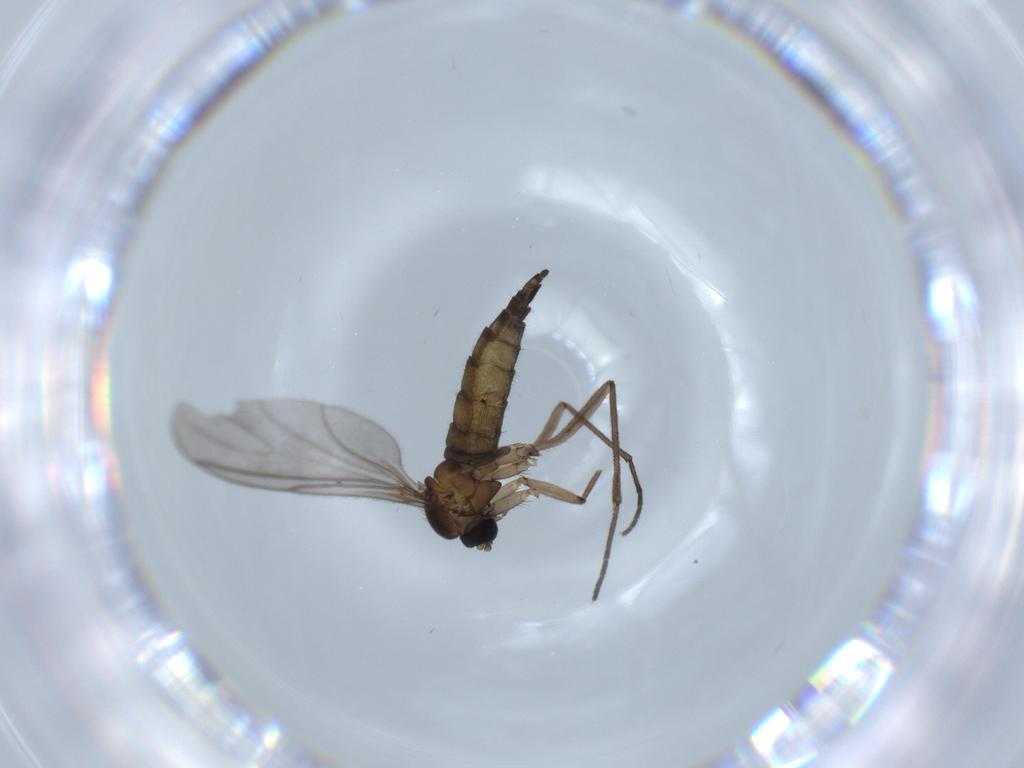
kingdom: Animalia
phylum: Arthropoda
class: Insecta
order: Diptera
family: Sciaridae
